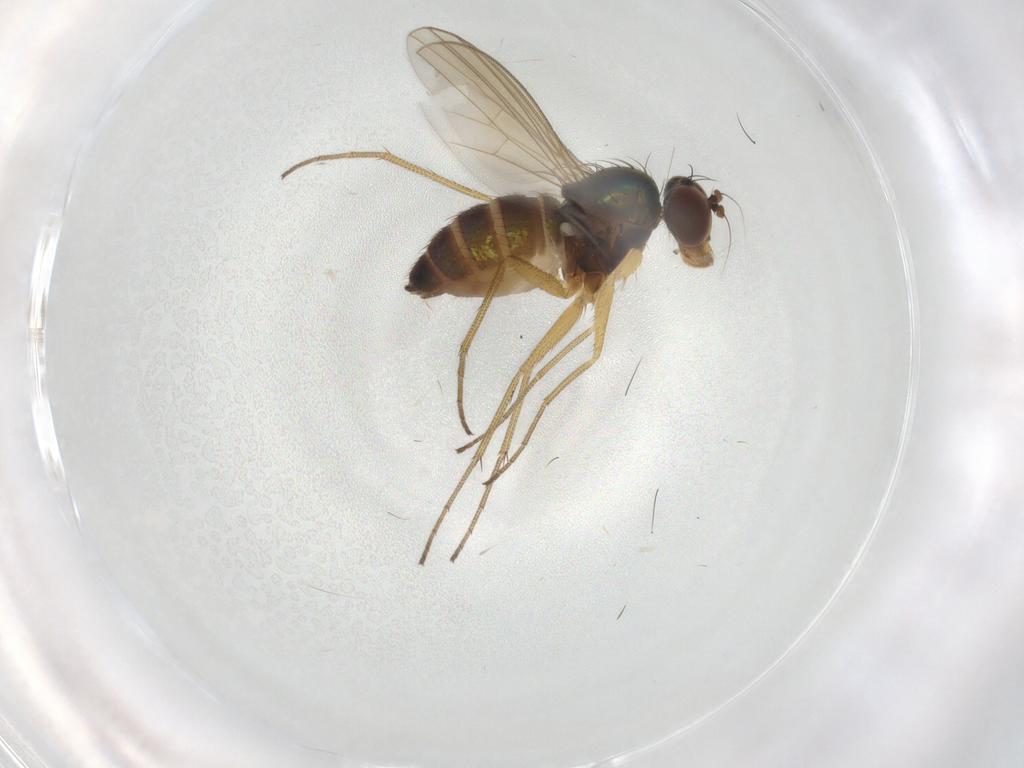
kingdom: Animalia
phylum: Arthropoda
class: Insecta
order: Diptera
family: Dolichopodidae
